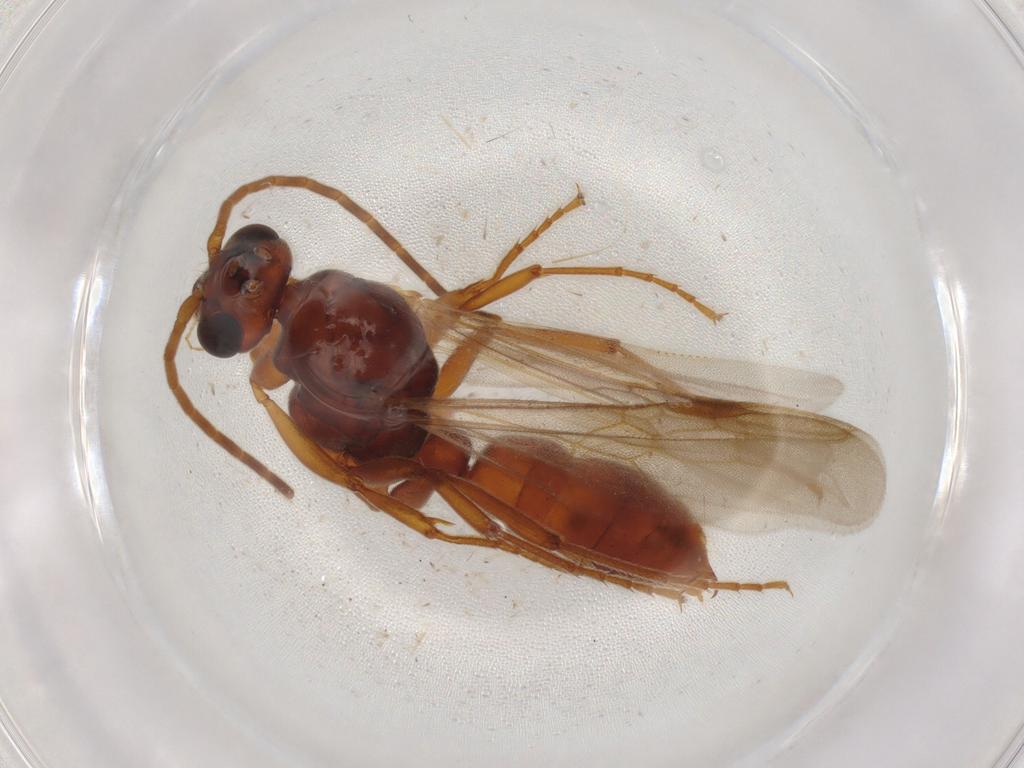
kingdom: Animalia
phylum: Arthropoda
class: Insecta
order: Hymenoptera
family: Formicidae
